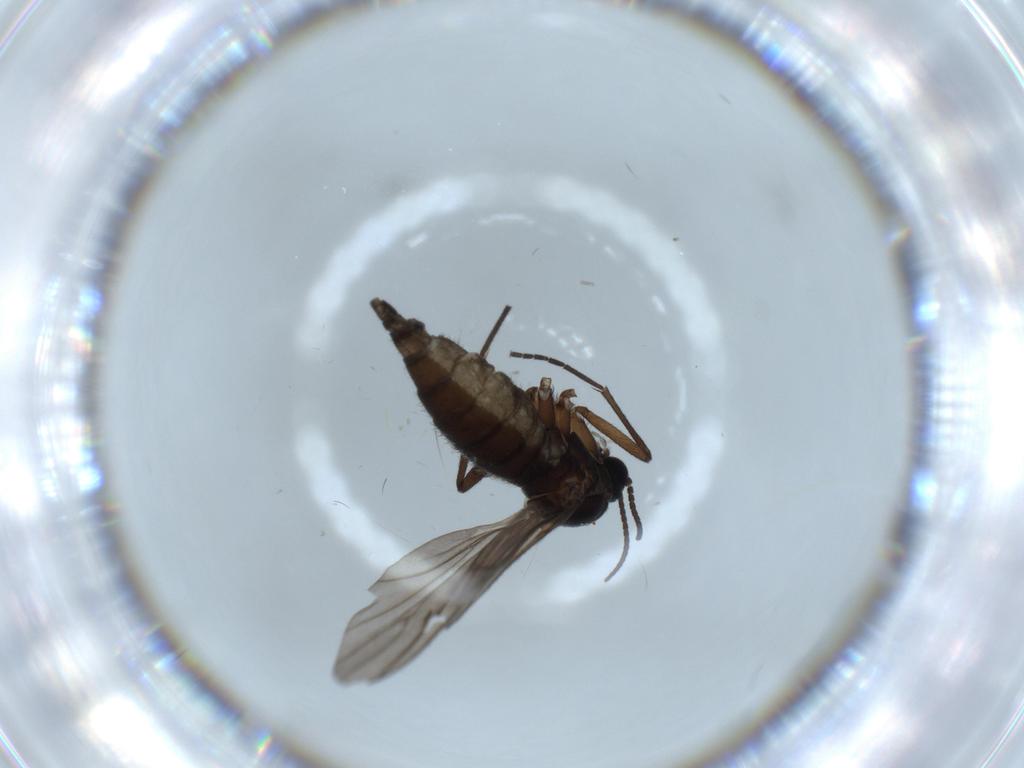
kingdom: Animalia
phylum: Arthropoda
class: Insecta
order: Diptera
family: Sciaridae
